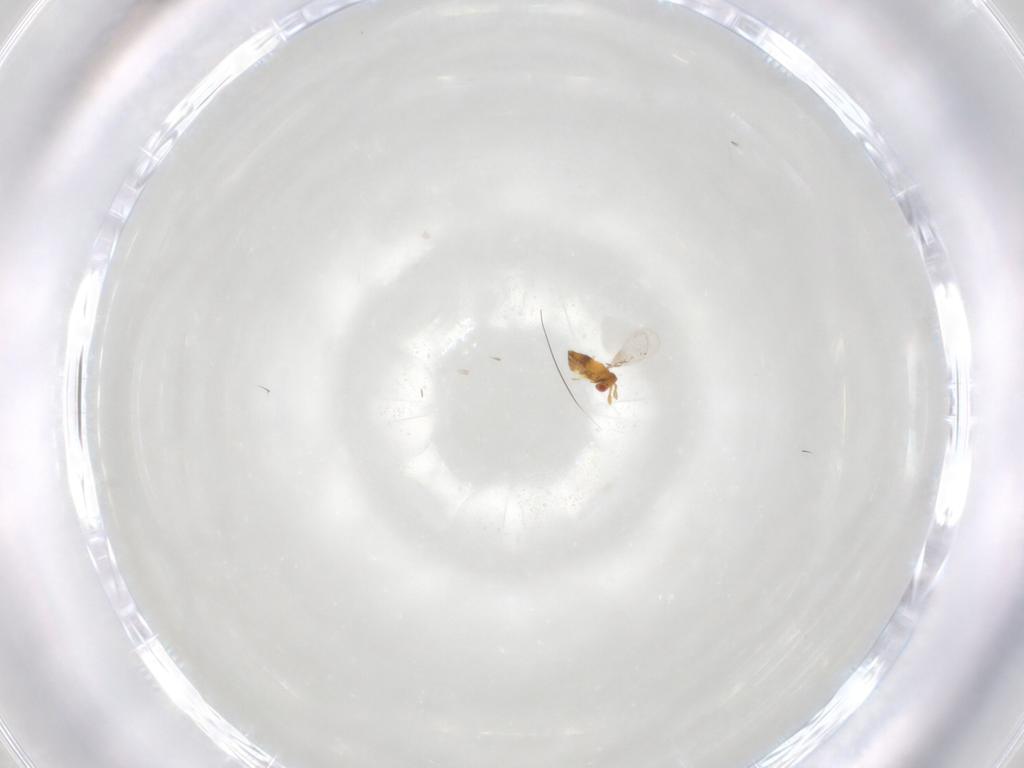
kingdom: Animalia
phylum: Arthropoda
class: Insecta
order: Hymenoptera
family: Trichogrammatidae
